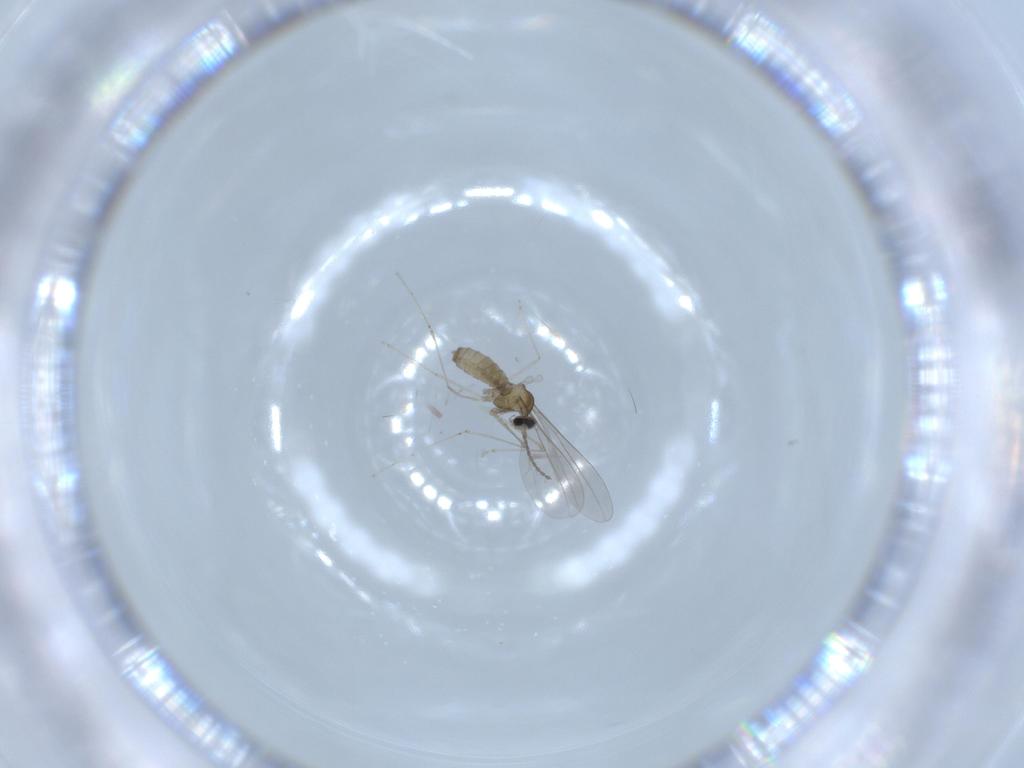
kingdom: Animalia
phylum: Arthropoda
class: Insecta
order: Diptera
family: Cecidomyiidae
